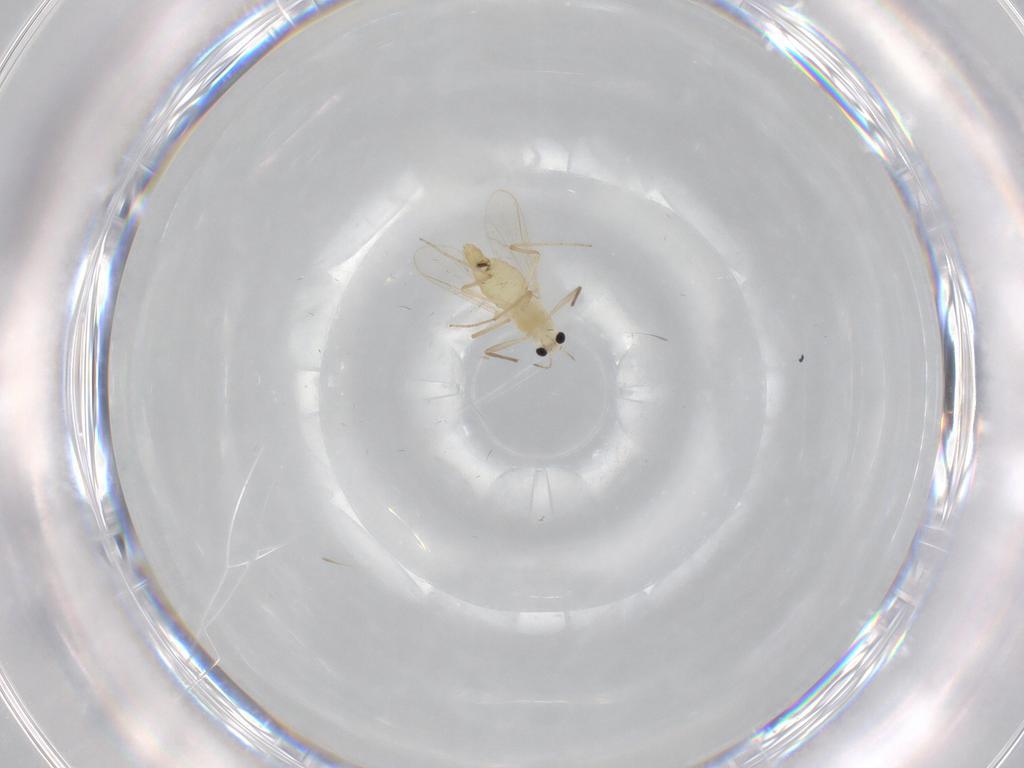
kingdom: Animalia
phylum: Arthropoda
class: Insecta
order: Diptera
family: Chironomidae
